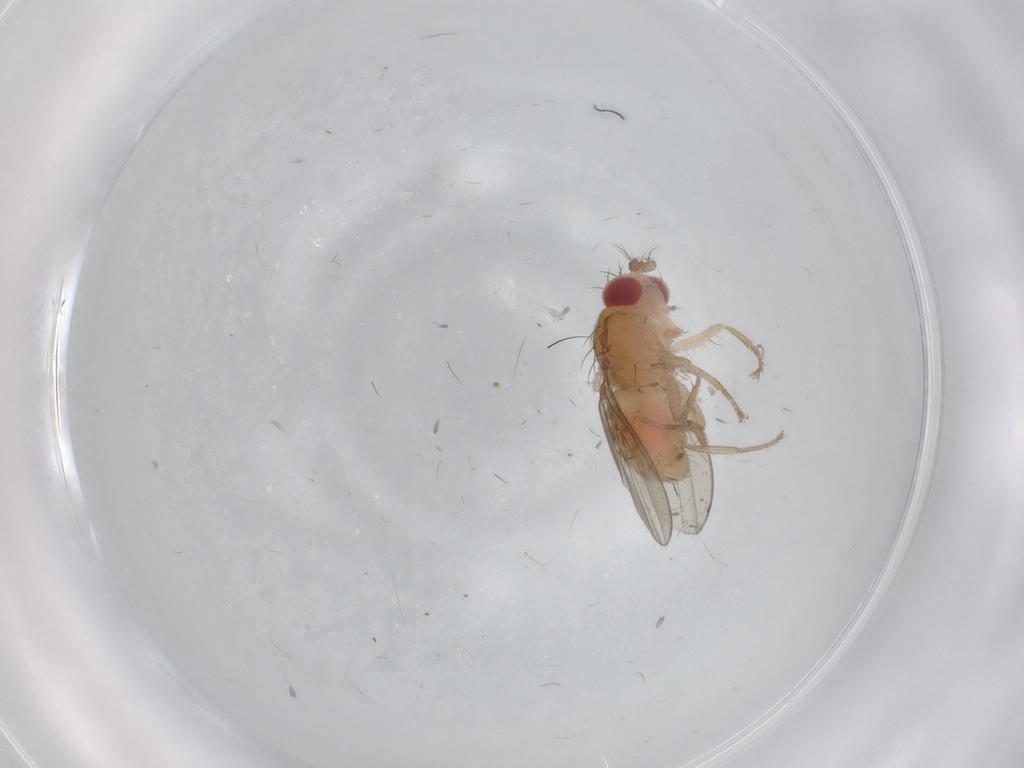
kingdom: Animalia
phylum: Arthropoda
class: Insecta
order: Diptera
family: Drosophilidae
